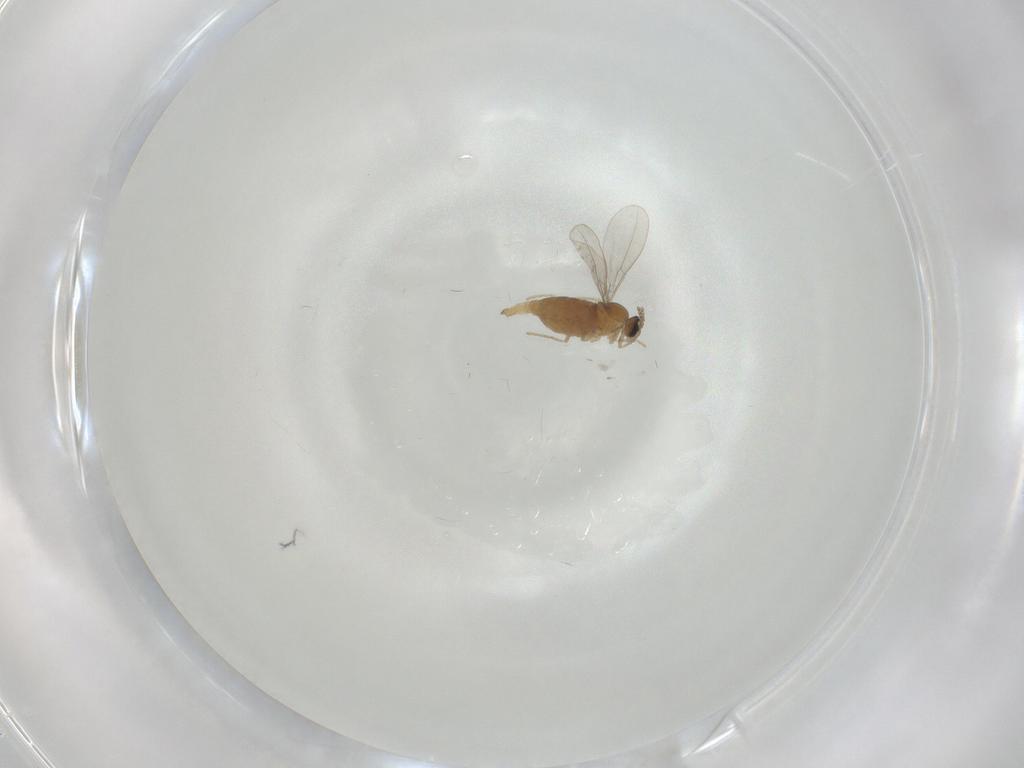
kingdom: Animalia
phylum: Arthropoda
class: Insecta
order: Diptera
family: Cecidomyiidae
